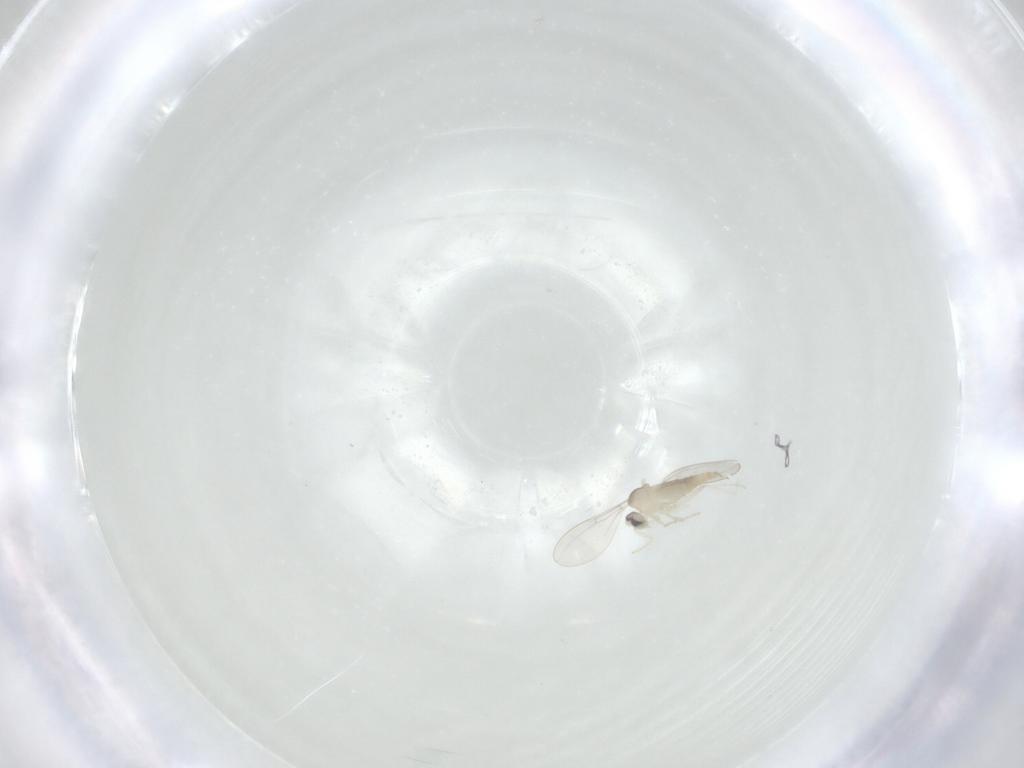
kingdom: Animalia
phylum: Arthropoda
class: Insecta
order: Diptera
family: Cecidomyiidae
